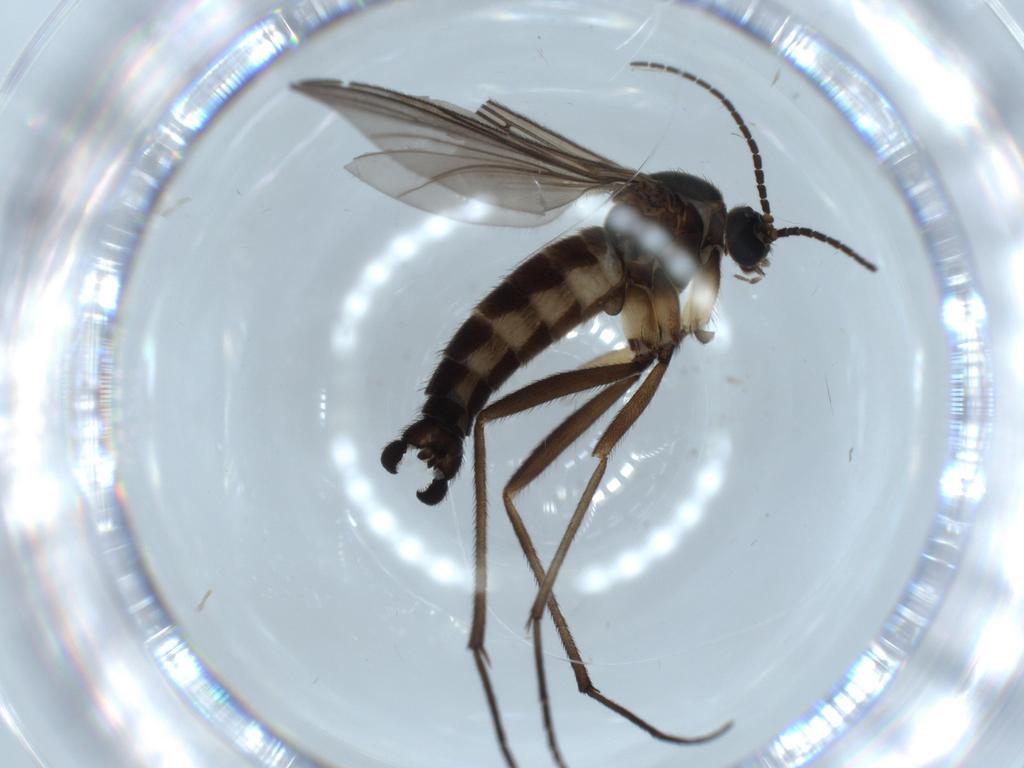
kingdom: Animalia
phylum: Arthropoda
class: Insecta
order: Diptera
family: Sciaridae
